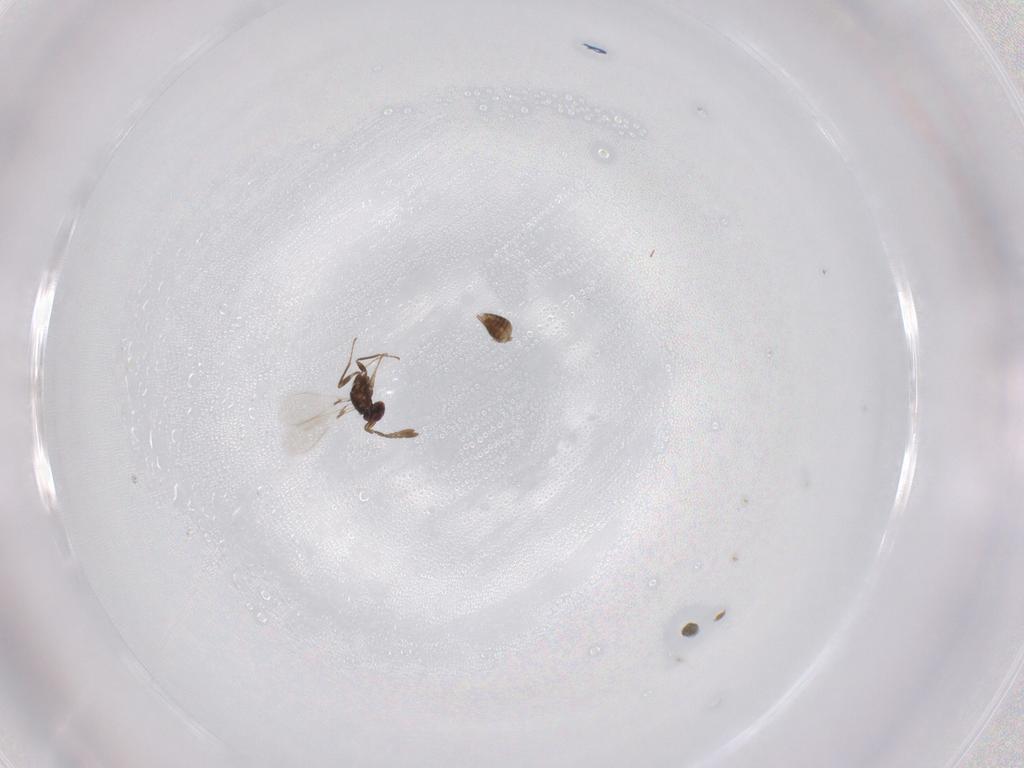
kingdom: Animalia
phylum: Arthropoda
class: Insecta
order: Hymenoptera
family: Mymaridae
